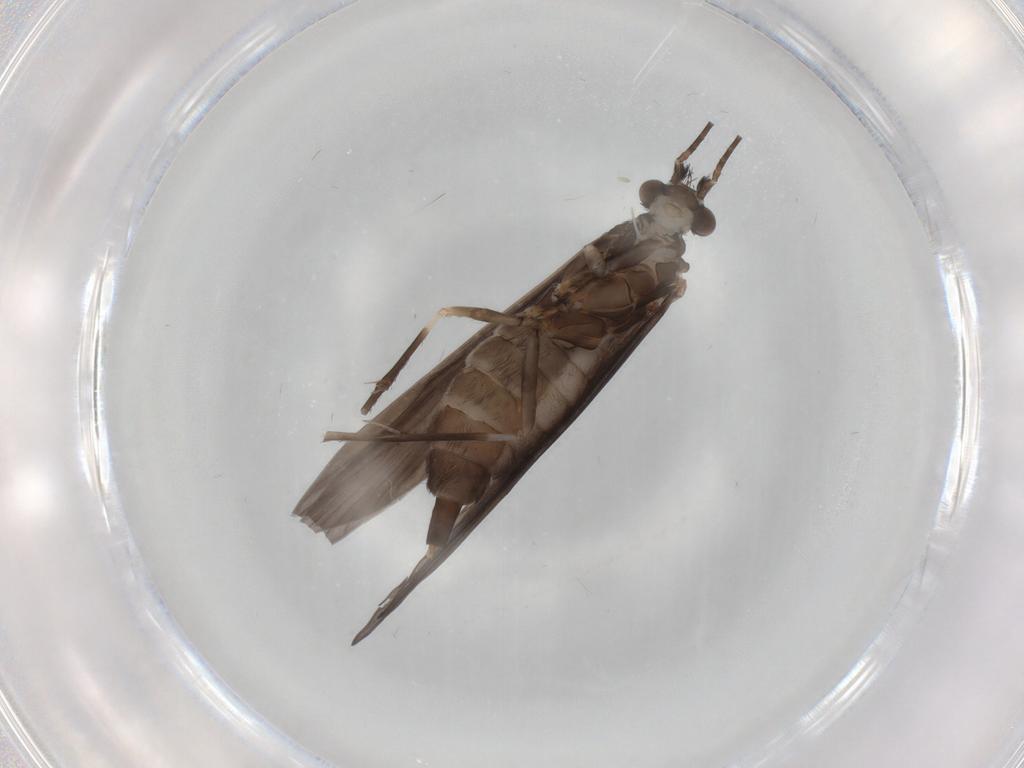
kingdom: Animalia
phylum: Arthropoda
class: Insecta
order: Trichoptera
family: Xiphocentronidae
